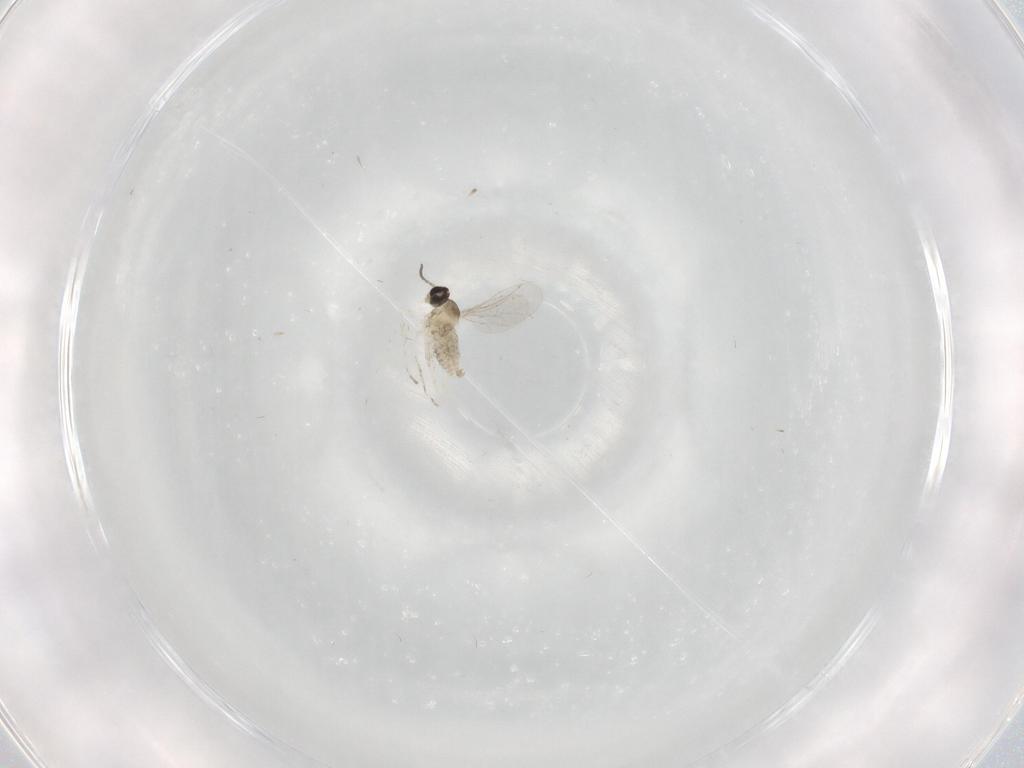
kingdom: Animalia
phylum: Arthropoda
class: Insecta
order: Diptera
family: Cecidomyiidae
